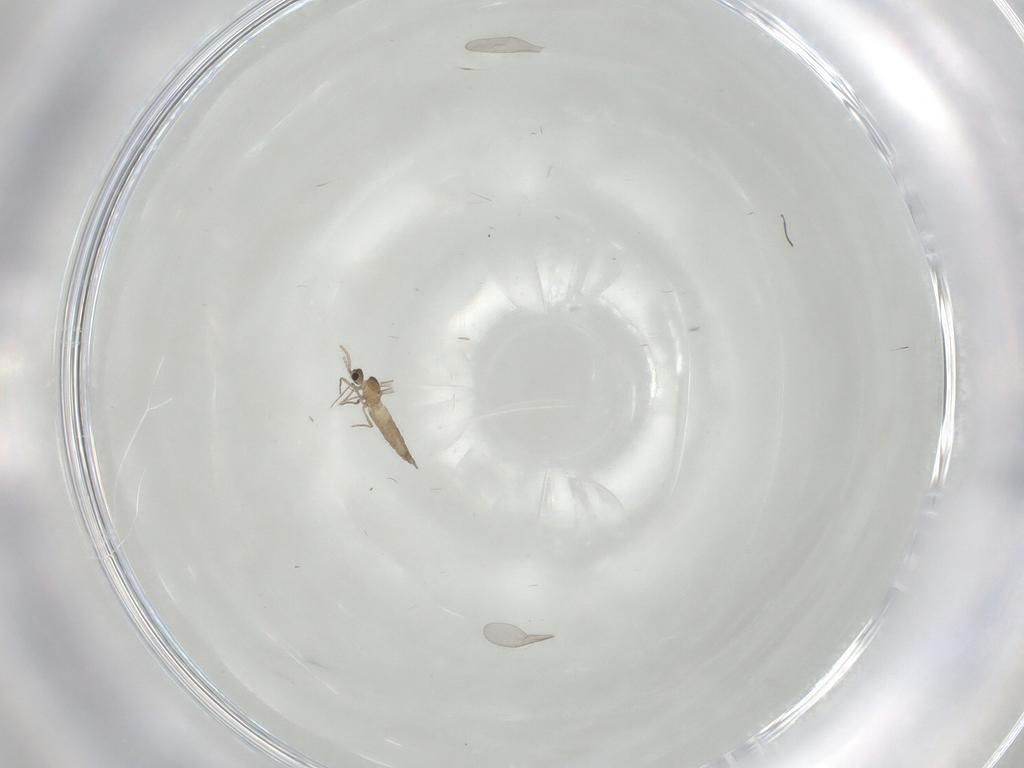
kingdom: Animalia
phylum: Arthropoda
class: Insecta
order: Diptera
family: Cecidomyiidae
